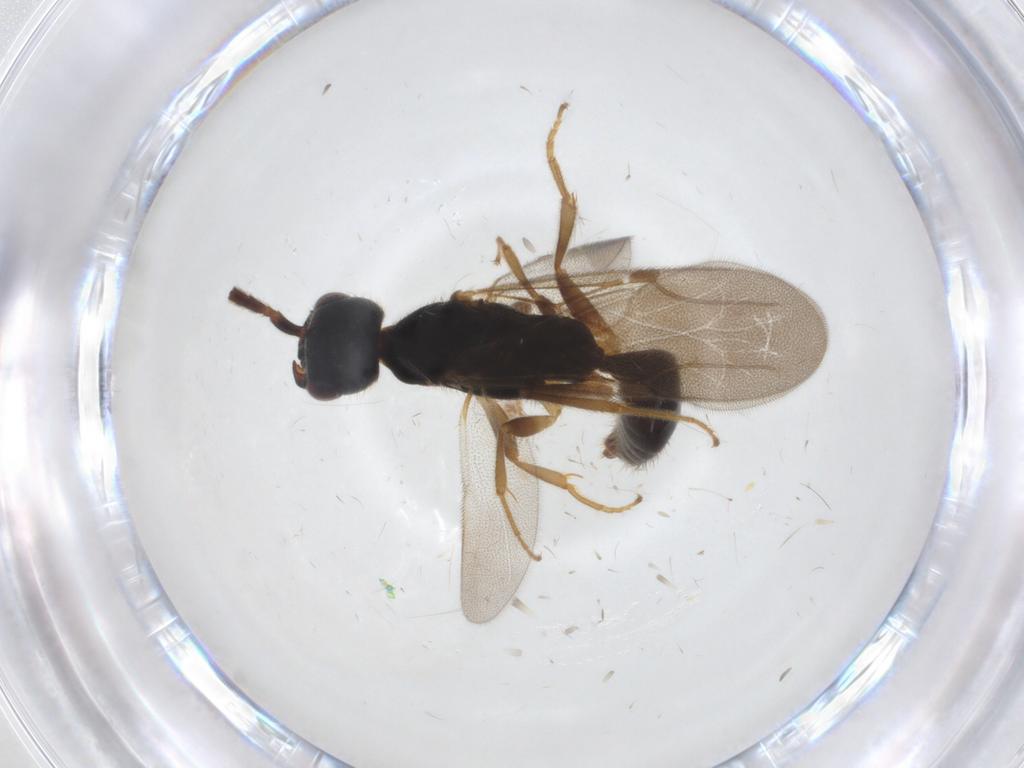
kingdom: Animalia
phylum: Arthropoda
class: Insecta
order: Hymenoptera
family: Bethylidae
